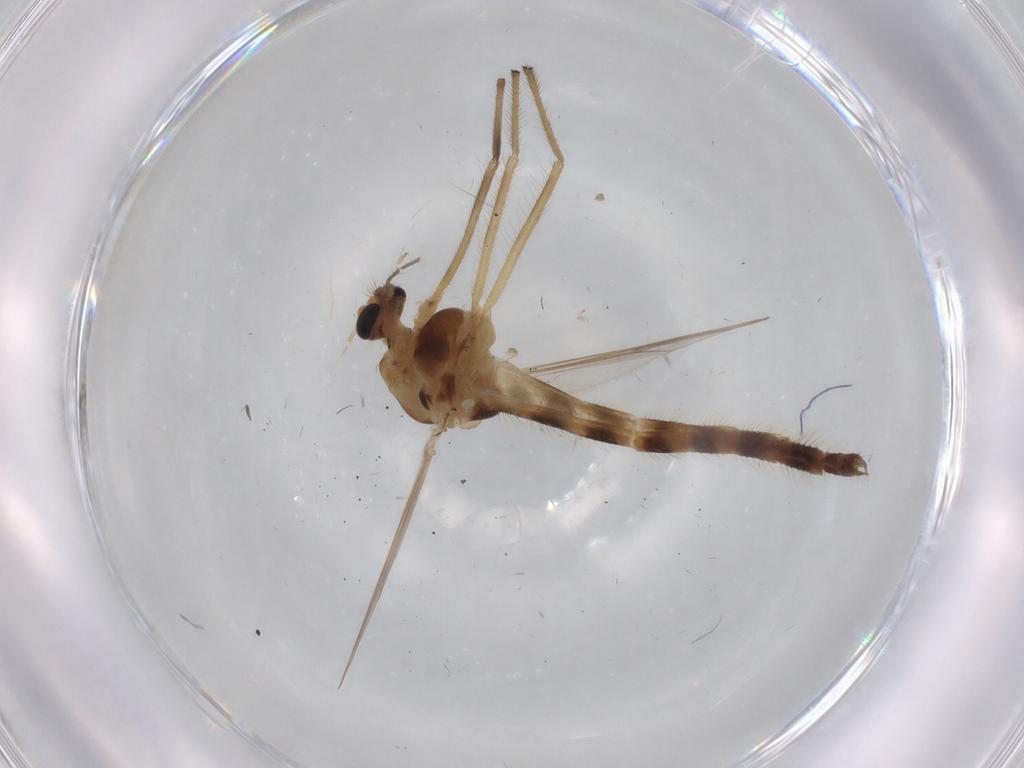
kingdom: Animalia
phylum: Arthropoda
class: Insecta
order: Diptera
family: Chironomidae
